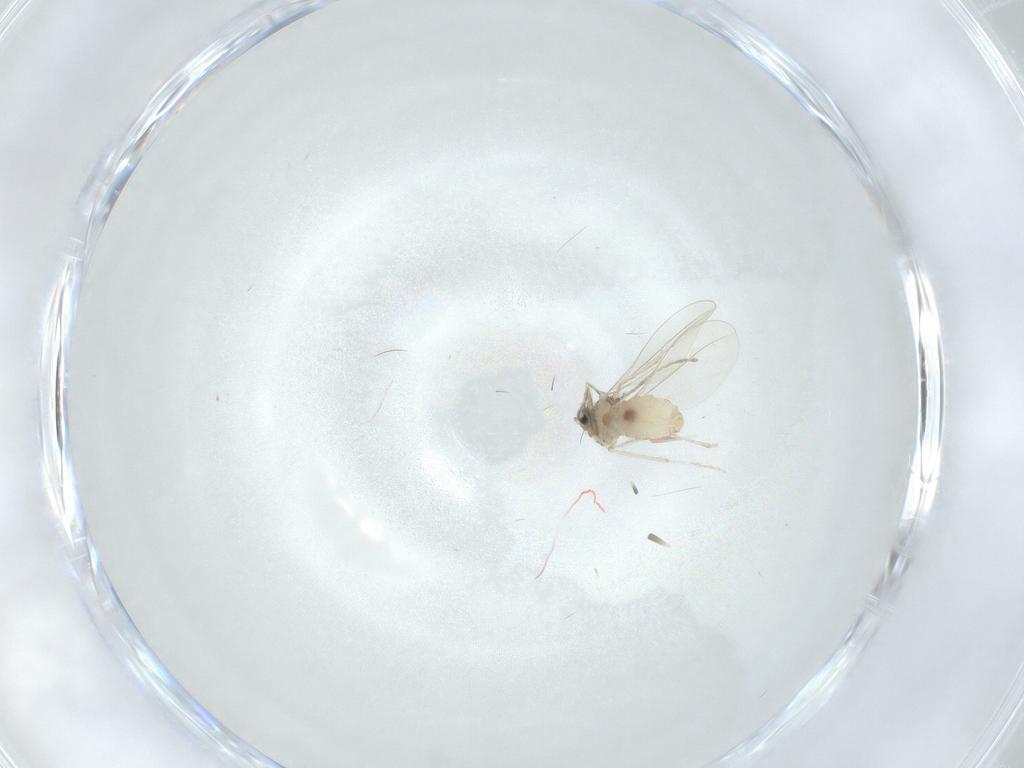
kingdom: Animalia
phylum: Arthropoda
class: Insecta
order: Diptera
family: Cecidomyiidae
